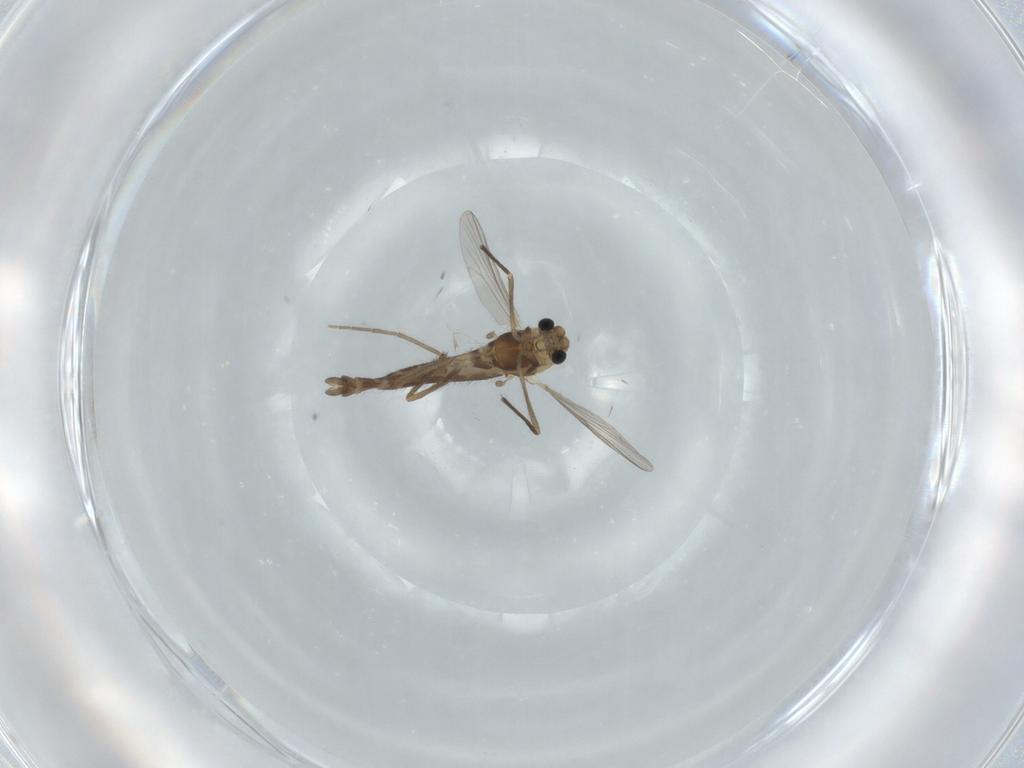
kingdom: Animalia
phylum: Arthropoda
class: Insecta
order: Diptera
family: Chironomidae
